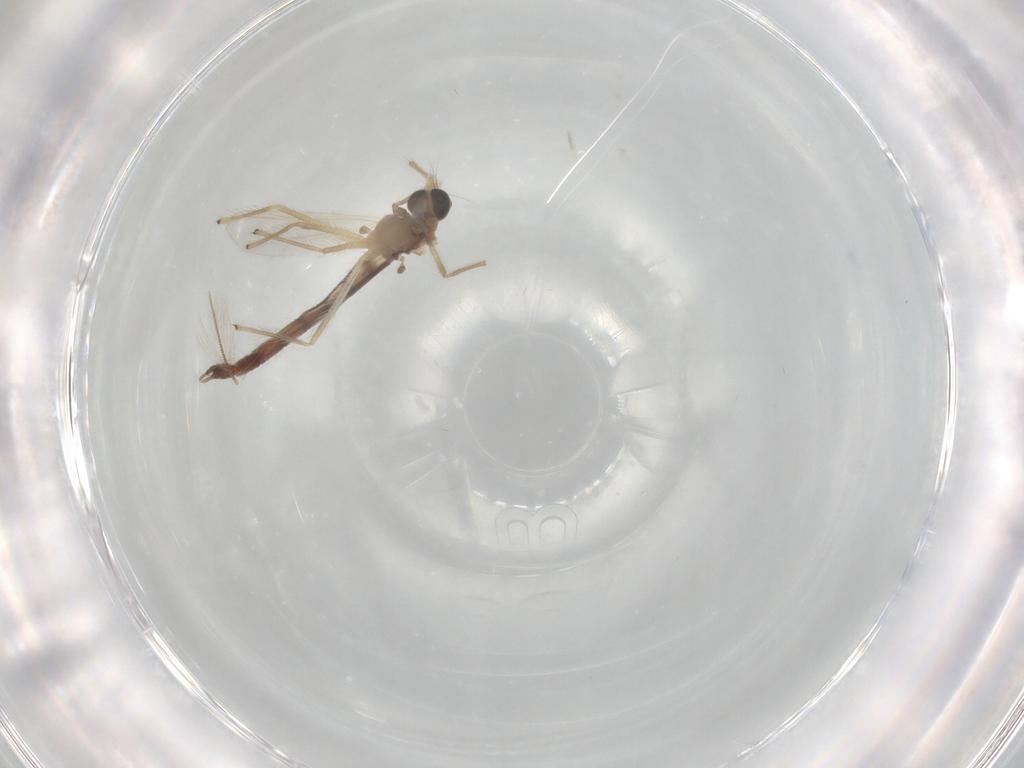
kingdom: Animalia
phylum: Arthropoda
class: Insecta
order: Diptera
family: Chironomidae
